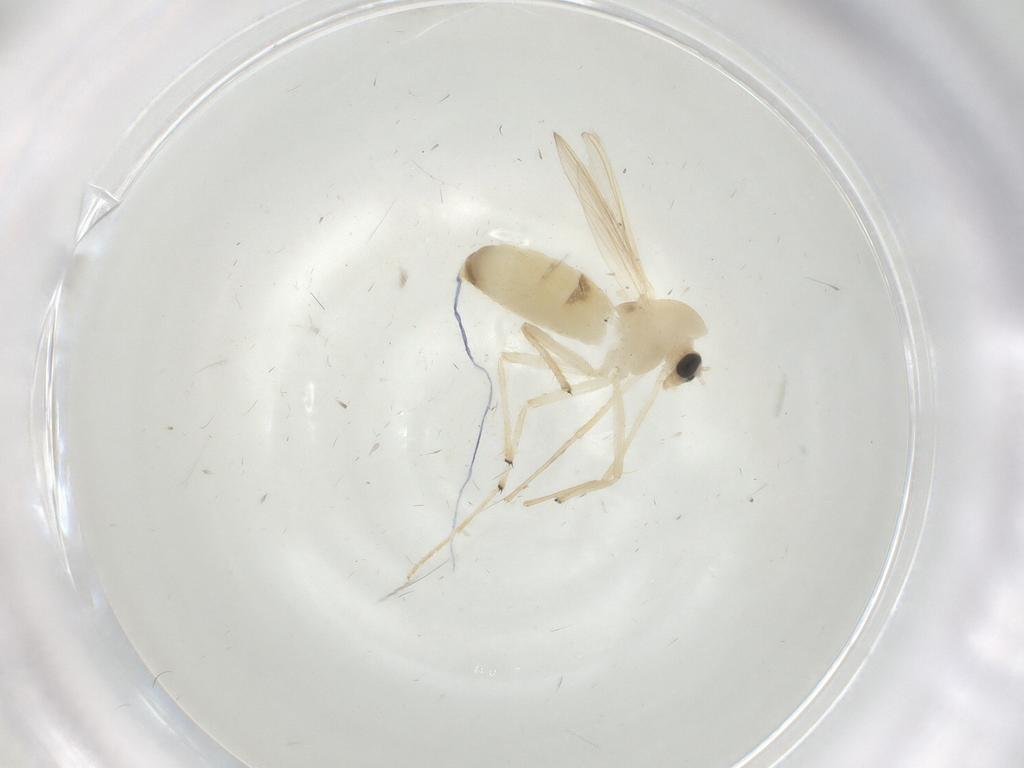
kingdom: Animalia
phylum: Arthropoda
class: Insecta
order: Diptera
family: Chironomidae
